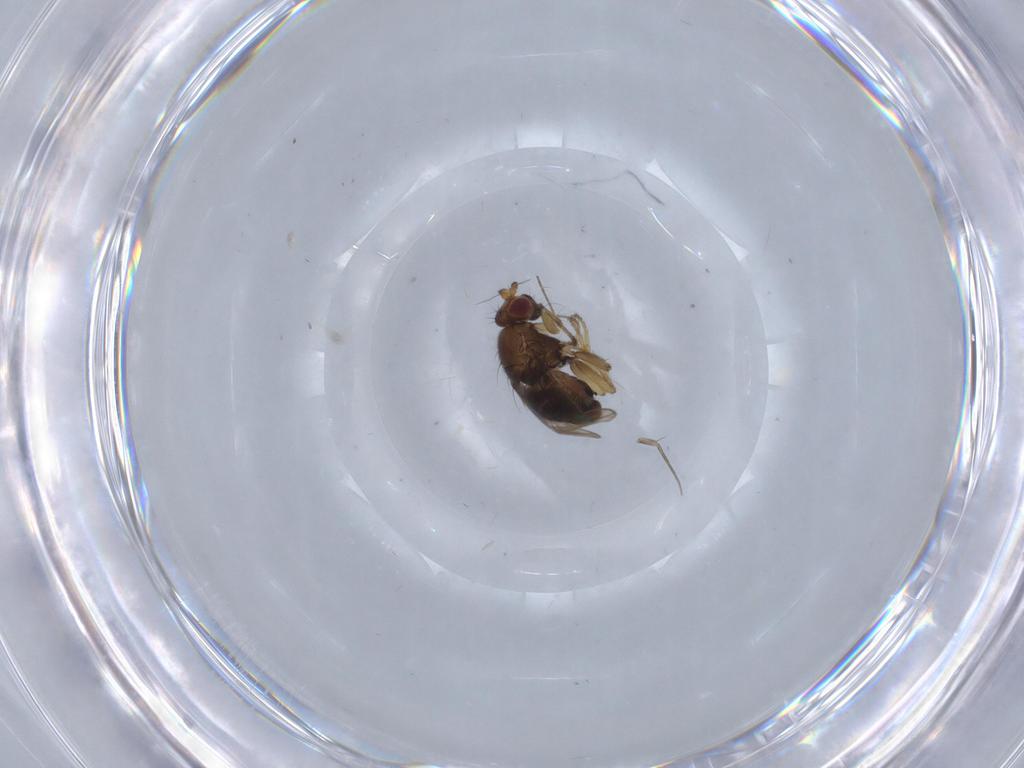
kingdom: Animalia
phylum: Arthropoda
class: Insecta
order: Diptera
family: Sphaeroceridae
